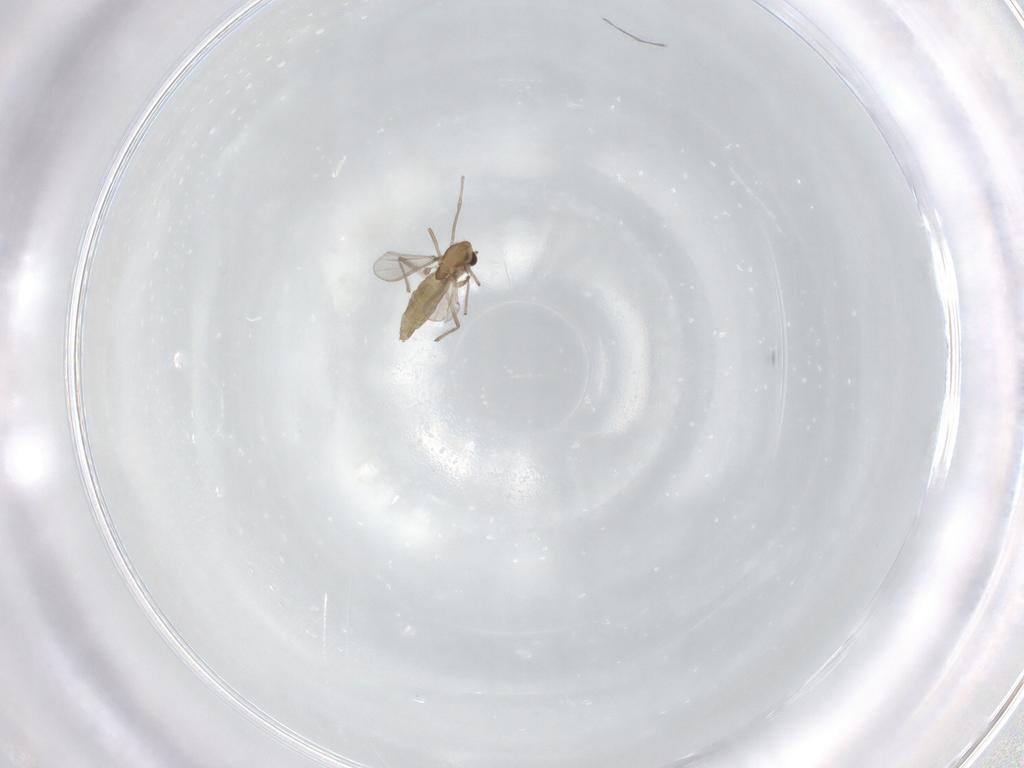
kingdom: Animalia
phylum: Arthropoda
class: Insecta
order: Diptera
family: Chironomidae
